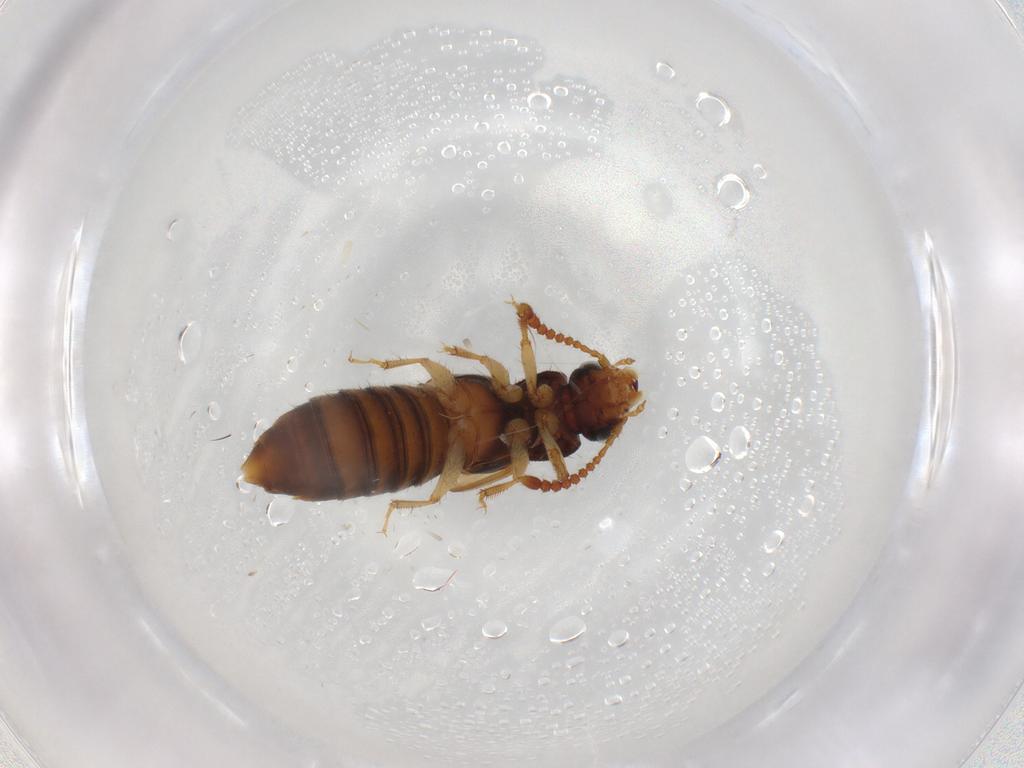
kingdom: Animalia
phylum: Arthropoda
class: Insecta
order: Coleoptera
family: Staphylinidae
